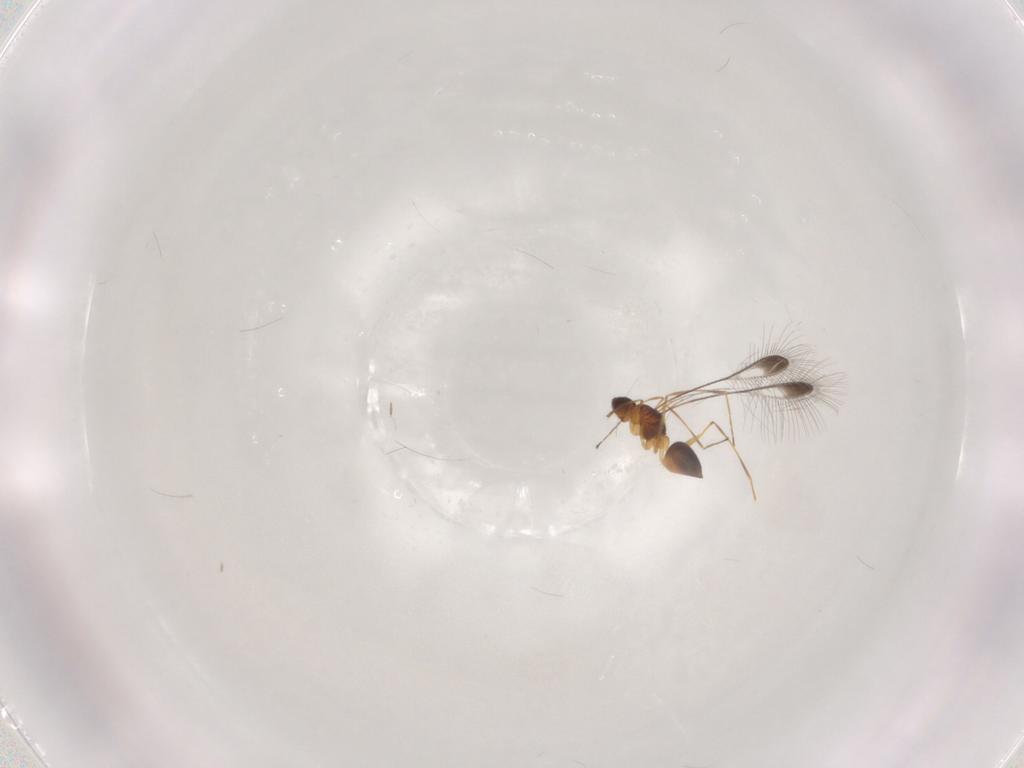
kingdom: Animalia
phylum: Arthropoda
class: Insecta
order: Hymenoptera
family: Mymaridae
